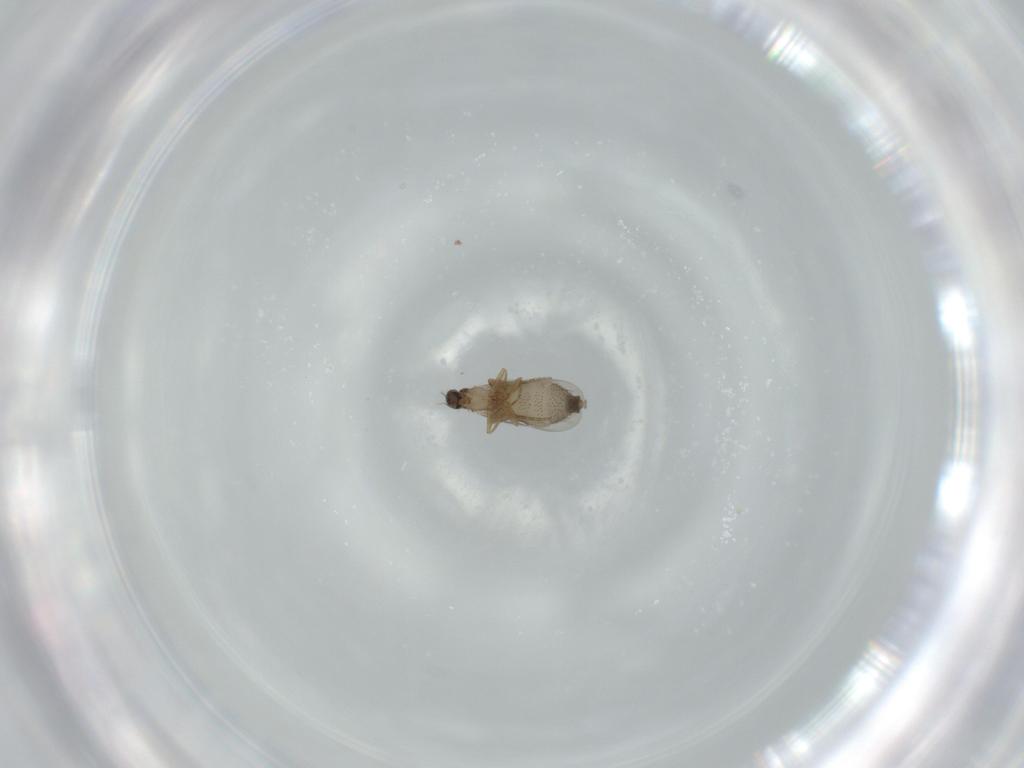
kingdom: Animalia
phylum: Arthropoda
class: Insecta
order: Diptera
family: Phoridae
